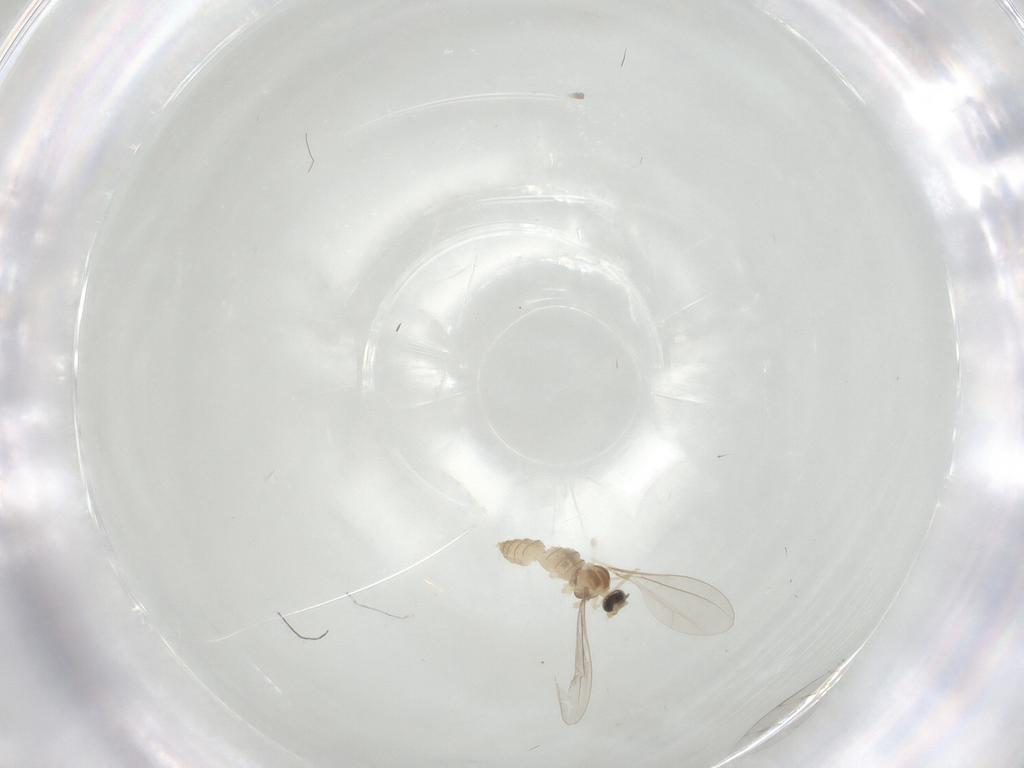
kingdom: Animalia
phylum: Arthropoda
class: Insecta
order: Diptera
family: Cecidomyiidae
